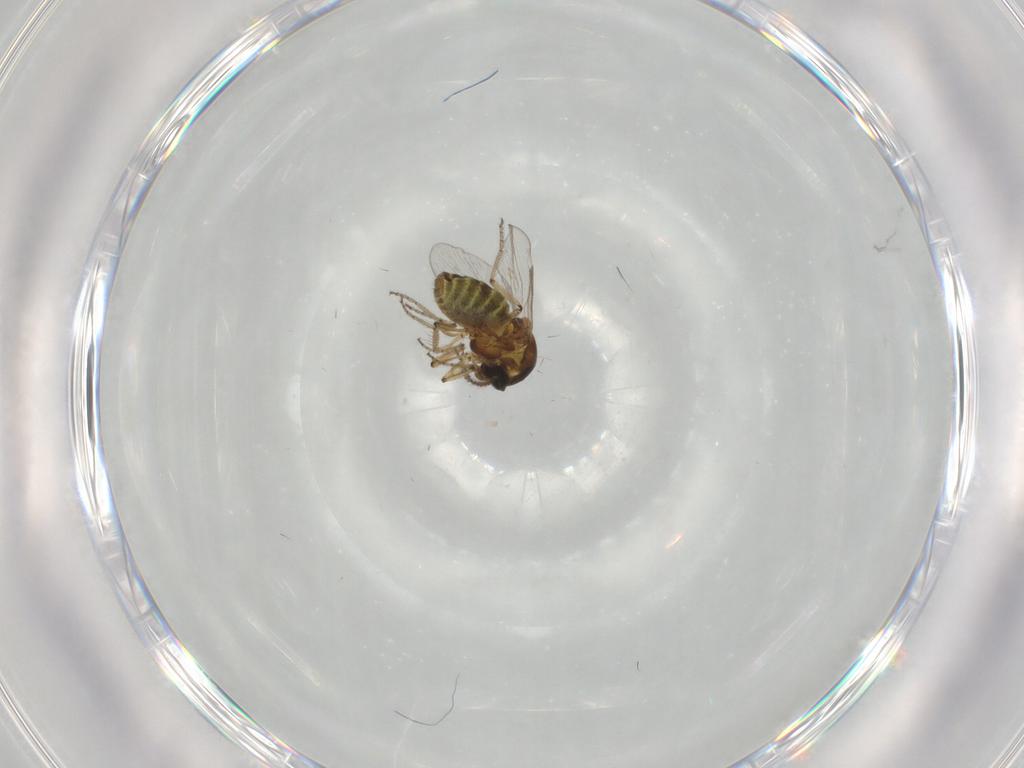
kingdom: Animalia
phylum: Arthropoda
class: Insecta
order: Diptera
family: Ceratopogonidae
